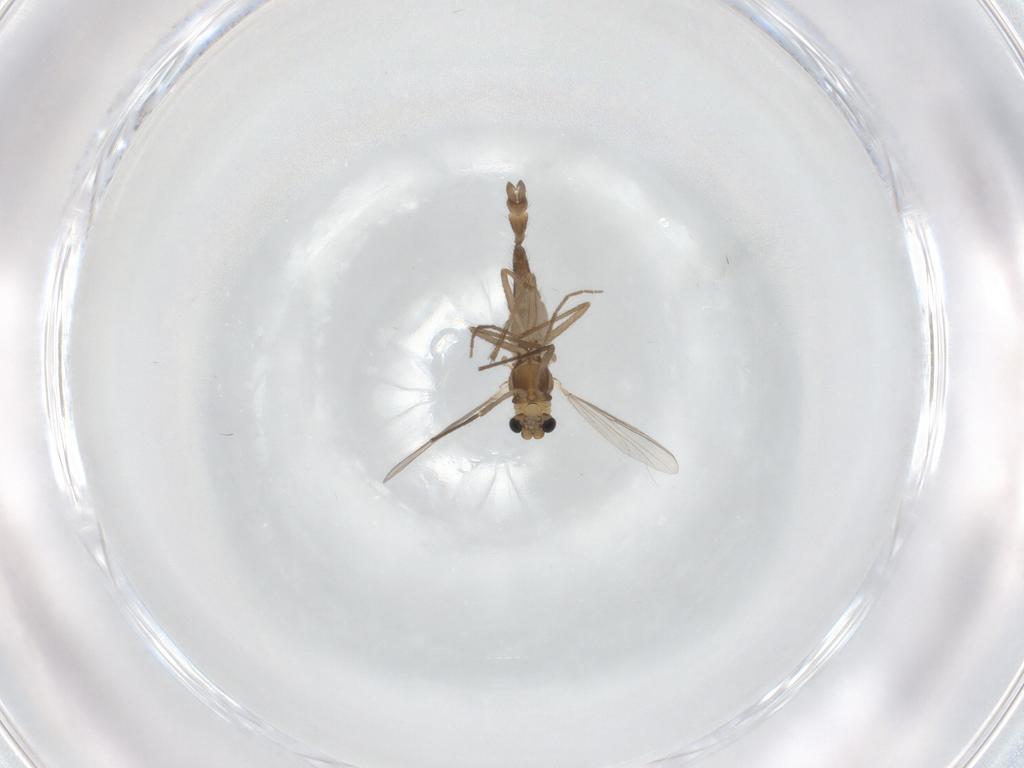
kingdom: Animalia
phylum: Arthropoda
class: Insecta
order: Diptera
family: Chironomidae
